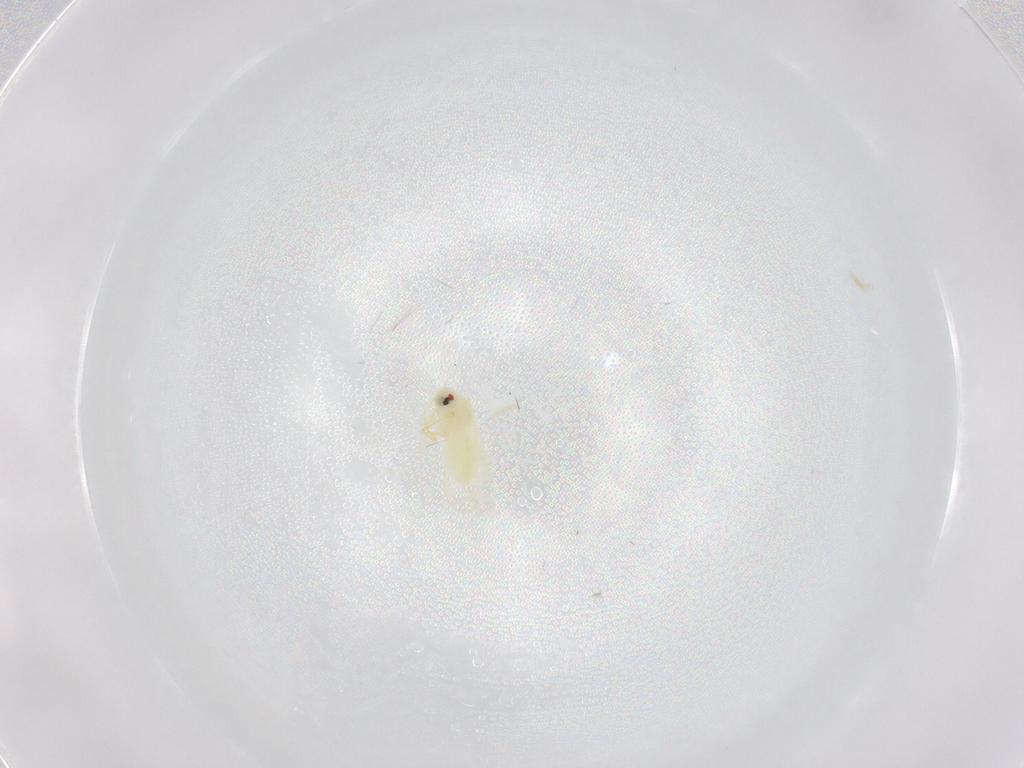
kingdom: Animalia
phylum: Arthropoda
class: Insecta
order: Hemiptera
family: Aleyrodidae
